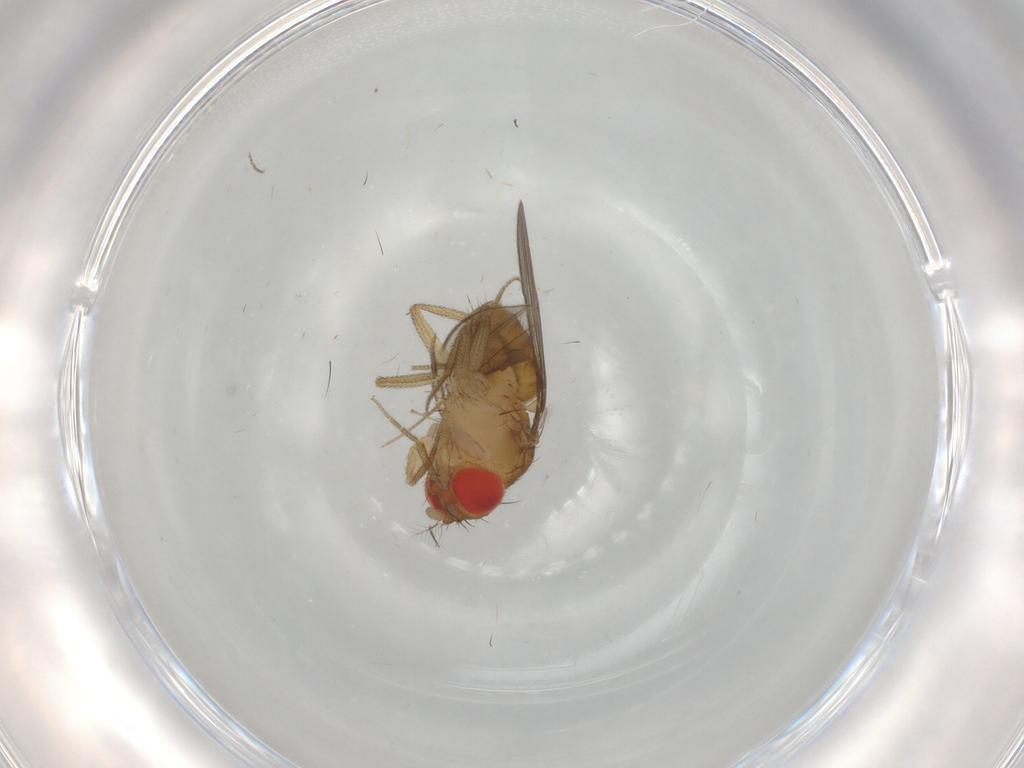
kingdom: Animalia
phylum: Arthropoda
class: Insecta
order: Diptera
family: Drosophilidae
